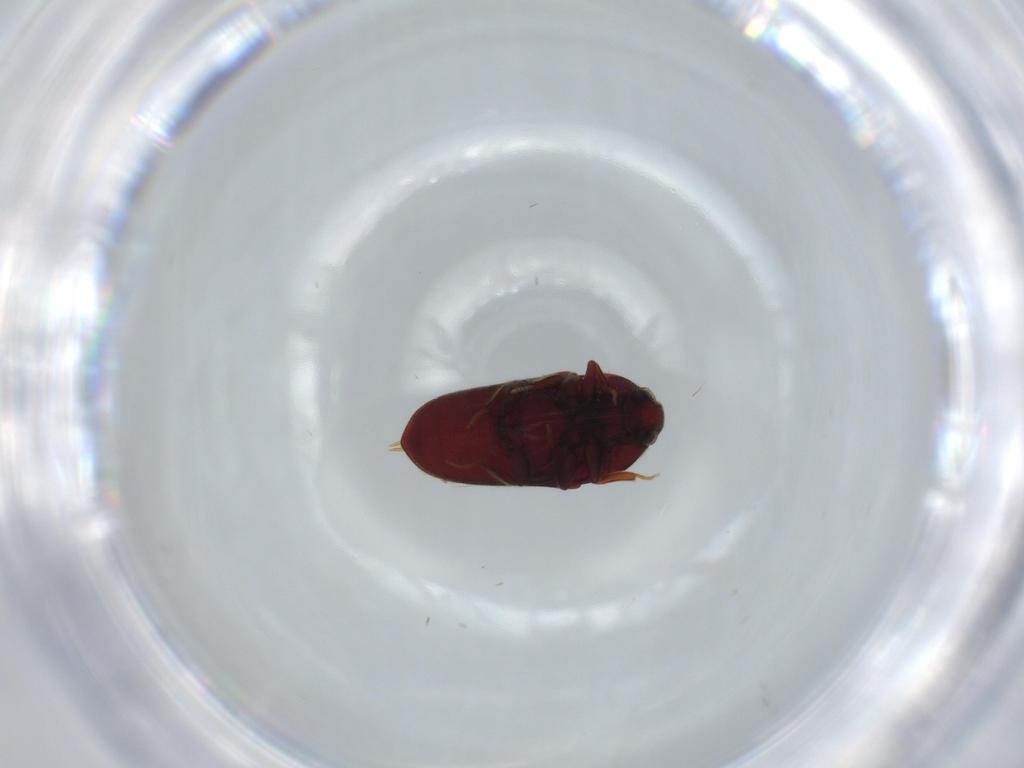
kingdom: Animalia
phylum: Arthropoda
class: Insecta
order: Coleoptera
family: Throscidae
